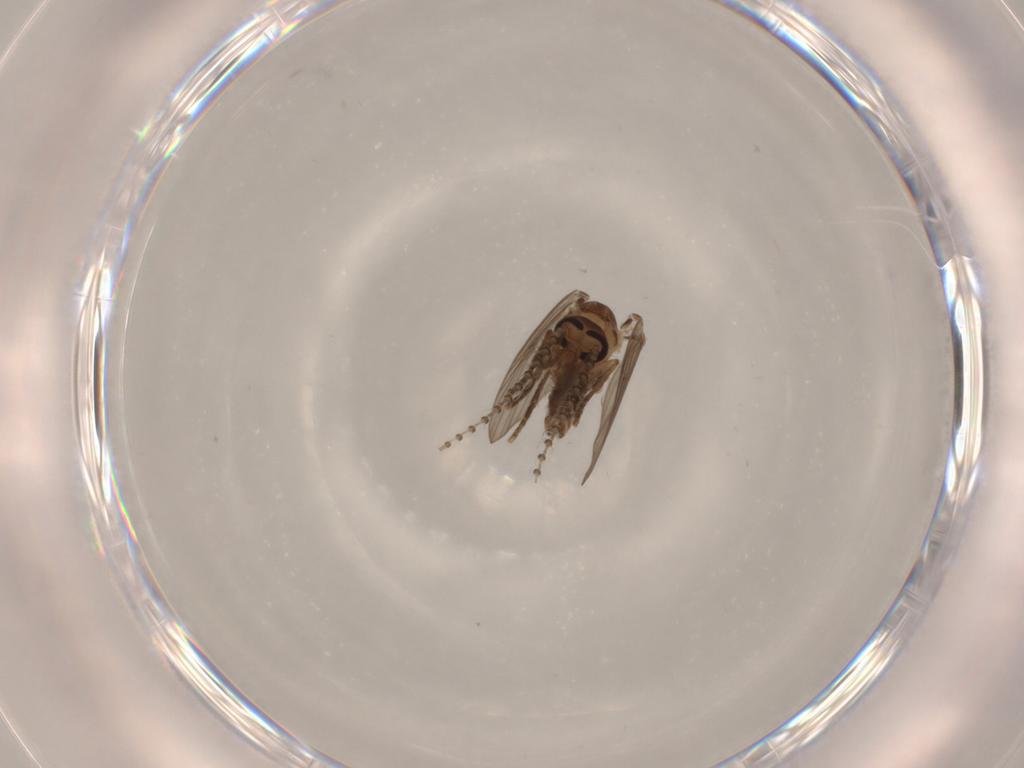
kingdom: Animalia
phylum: Arthropoda
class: Insecta
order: Diptera
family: Psychodidae
